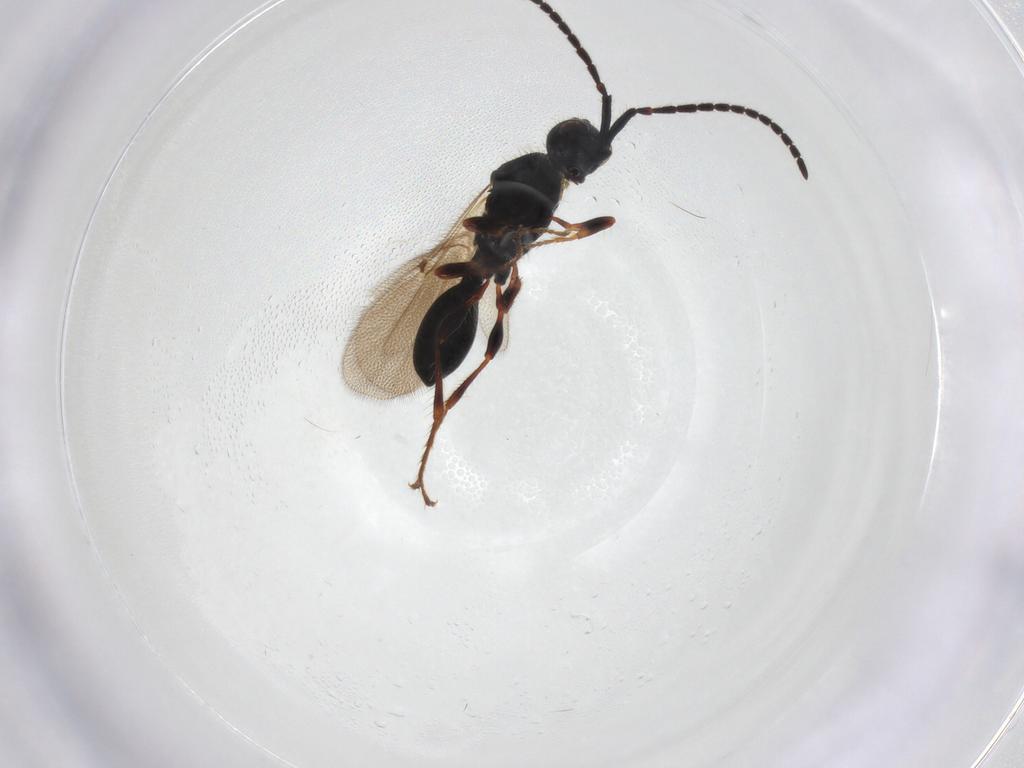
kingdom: Animalia
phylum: Arthropoda
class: Insecta
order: Hymenoptera
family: Diapriidae
